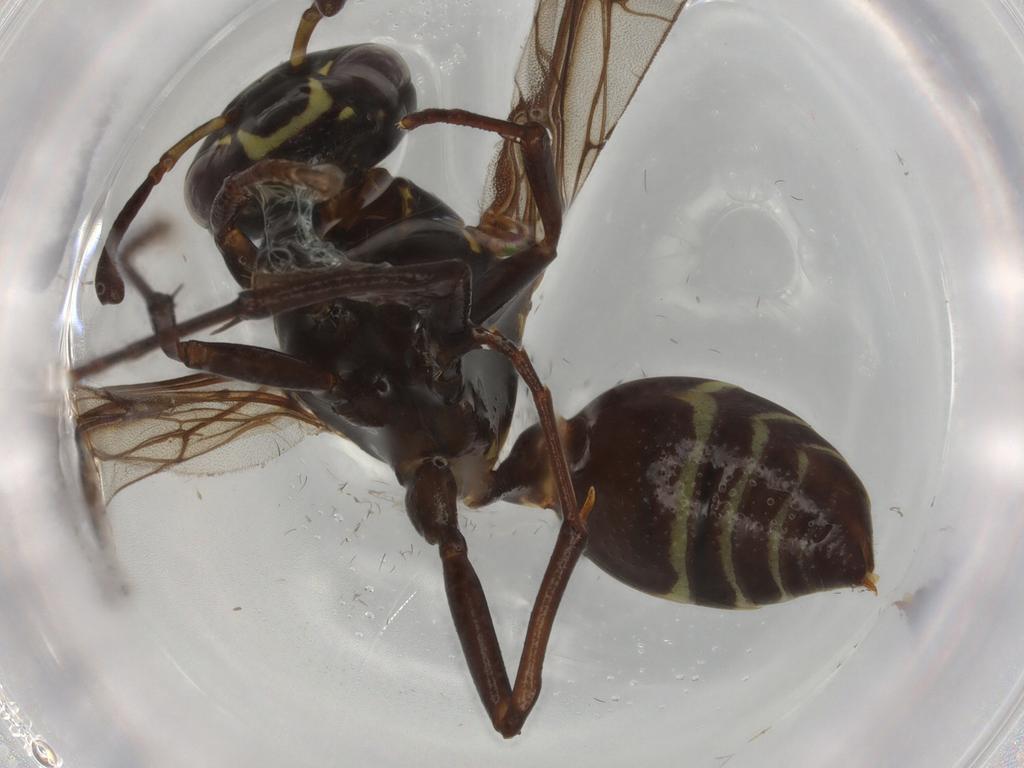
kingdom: Animalia
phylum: Arthropoda
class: Insecta
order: Hymenoptera
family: Vespidae
